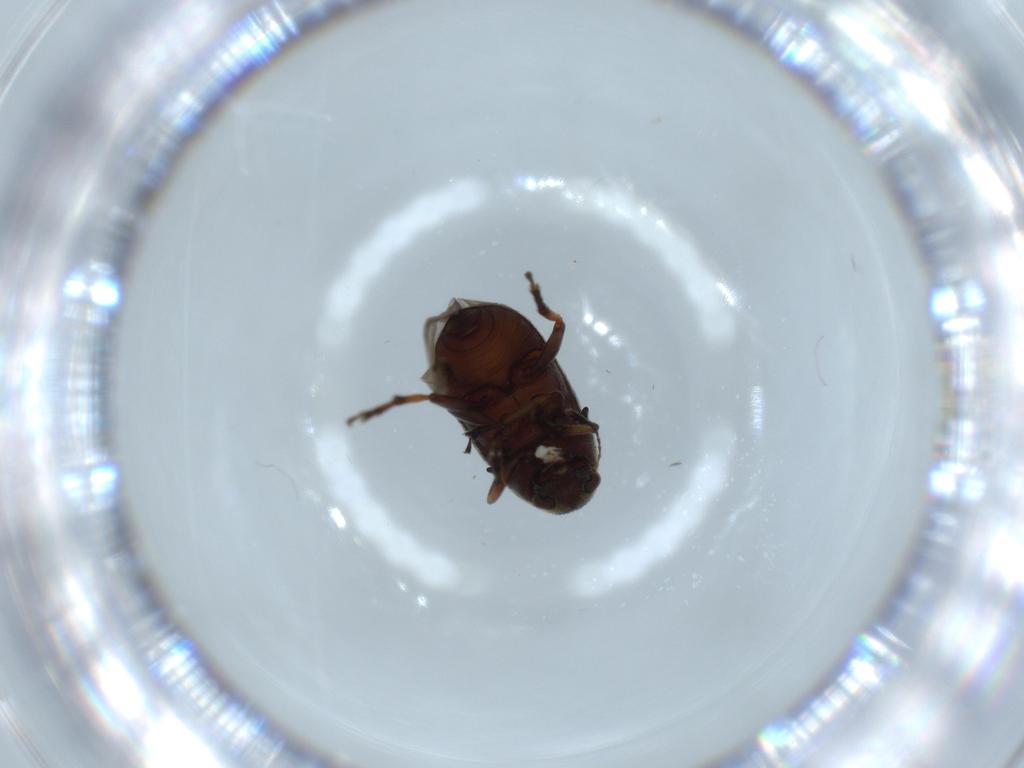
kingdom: Animalia
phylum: Arthropoda
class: Insecta
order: Coleoptera
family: Anthribidae
